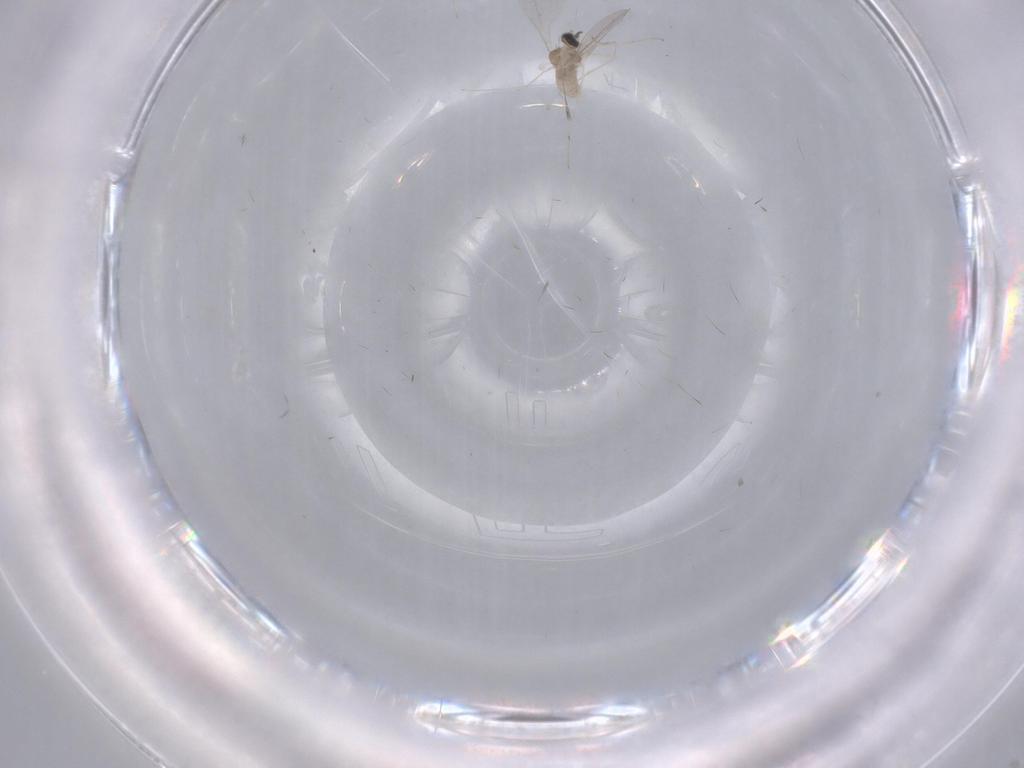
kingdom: Animalia
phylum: Arthropoda
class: Insecta
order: Diptera
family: Cecidomyiidae
